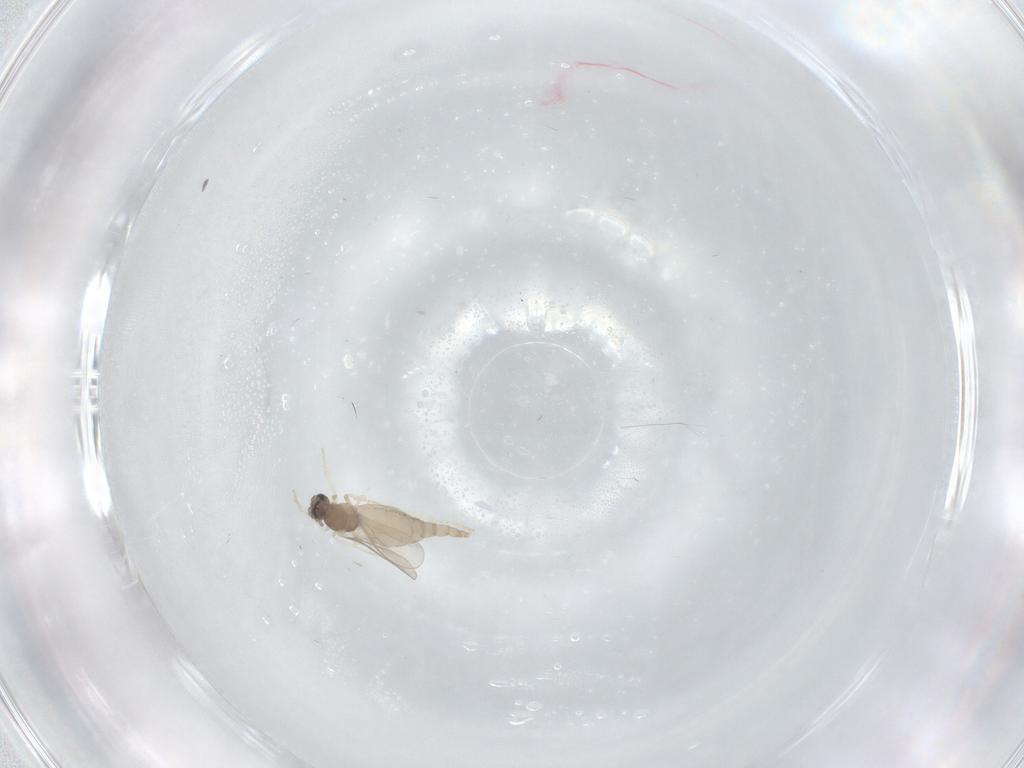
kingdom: Animalia
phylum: Arthropoda
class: Insecta
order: Diptera
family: Cecidomyiidae
